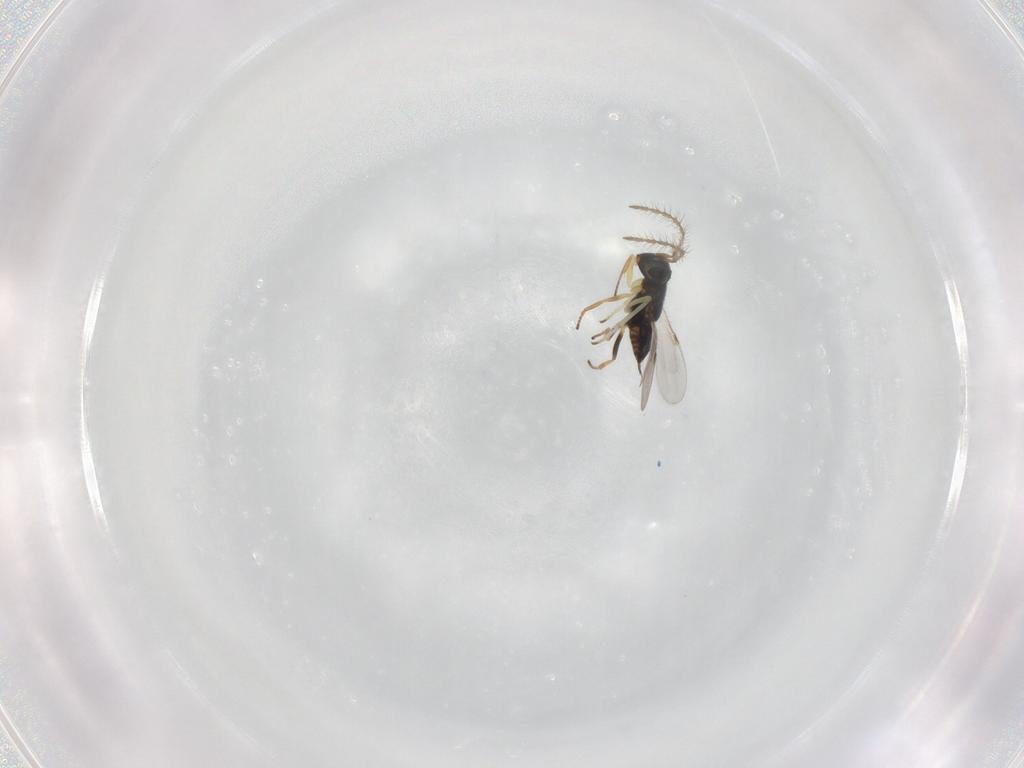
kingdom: Animalia
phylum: Arthropoda
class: Insecta
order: Hymenoptera
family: Encyrtidae
